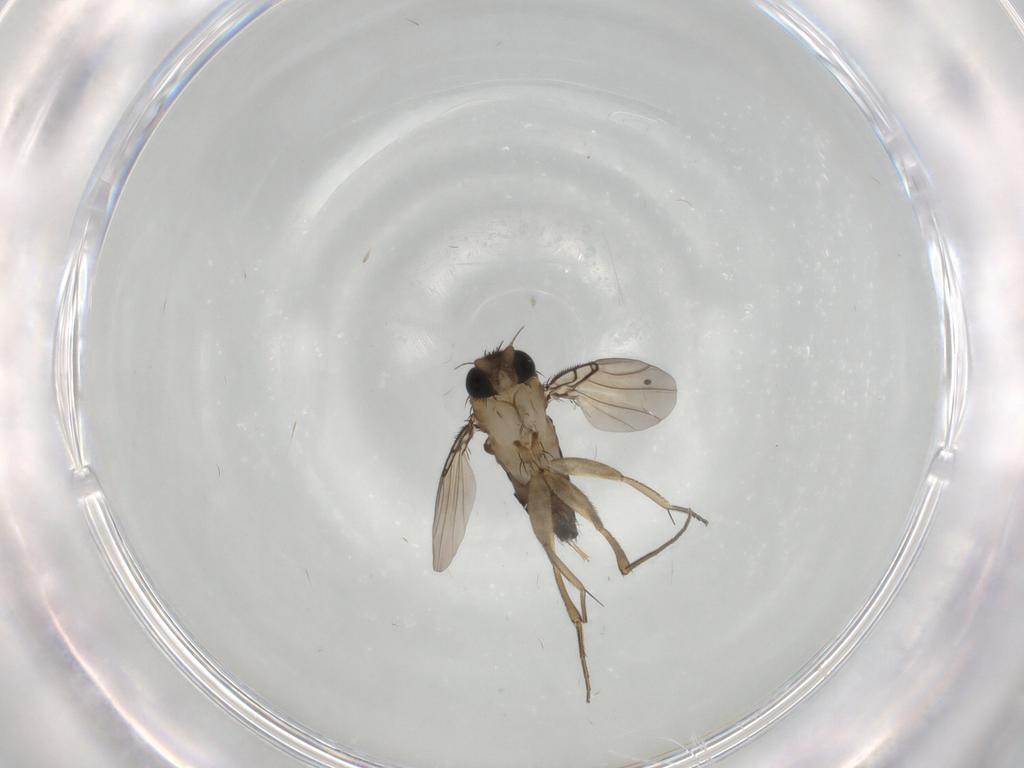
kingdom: Animalia
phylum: Arthropoda
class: Insecta
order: Diptera
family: Phoridae
